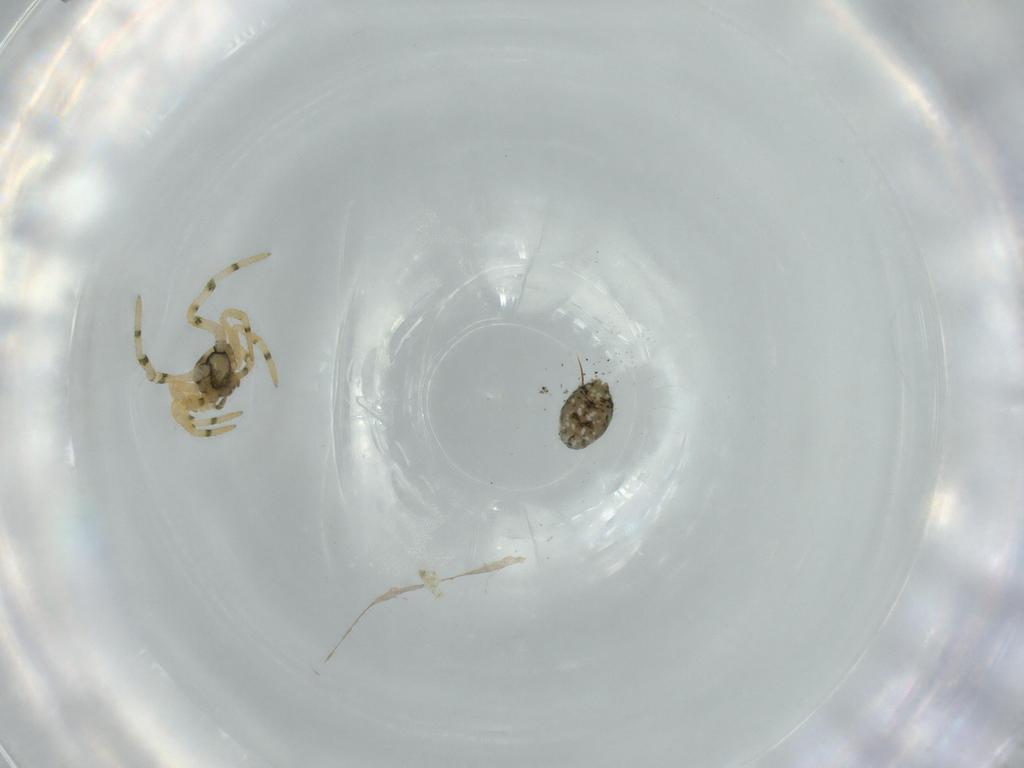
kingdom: Animalia
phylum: Arthropoda
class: Arachnida
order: Araneae
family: Theridiidae
